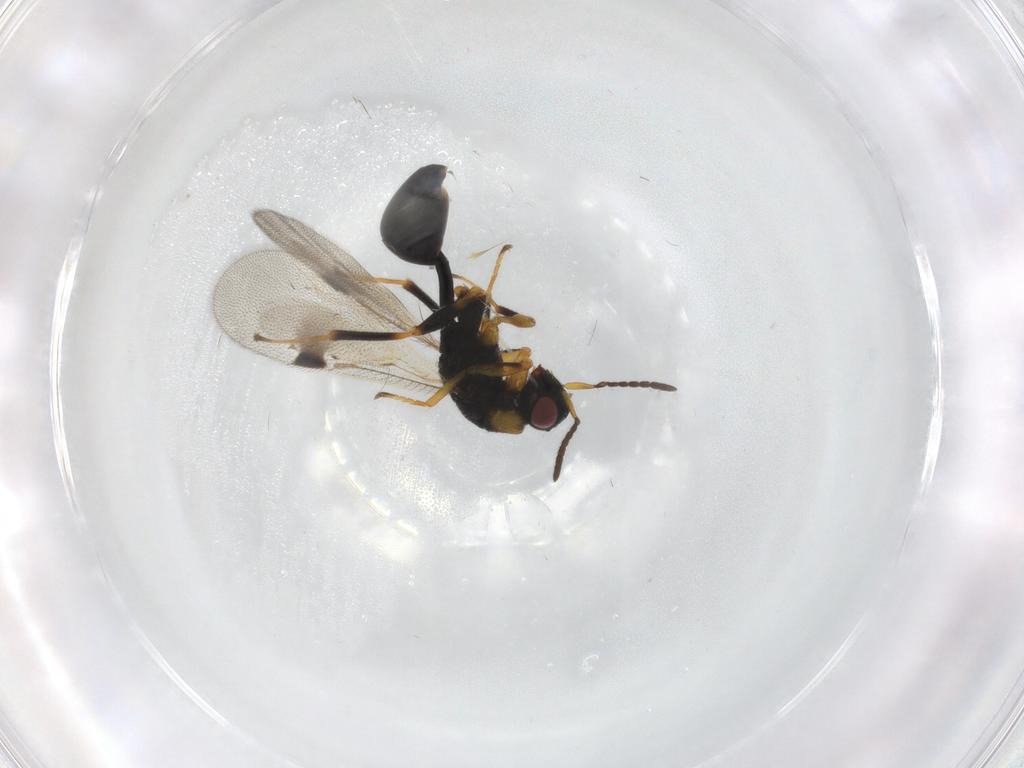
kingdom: Animalia
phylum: Arthropoda
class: Insecta
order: Hymenoptera
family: Eurytomidae
